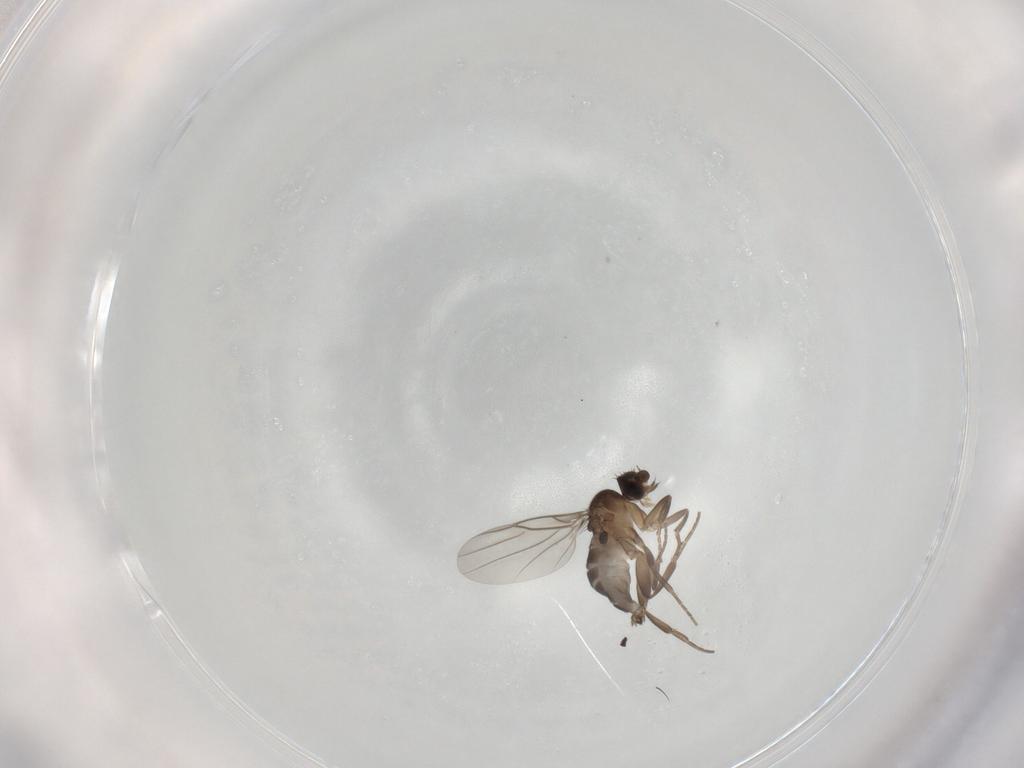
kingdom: Animalia
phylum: Arthropoda
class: Insecta
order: Diptera
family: Phoridae
